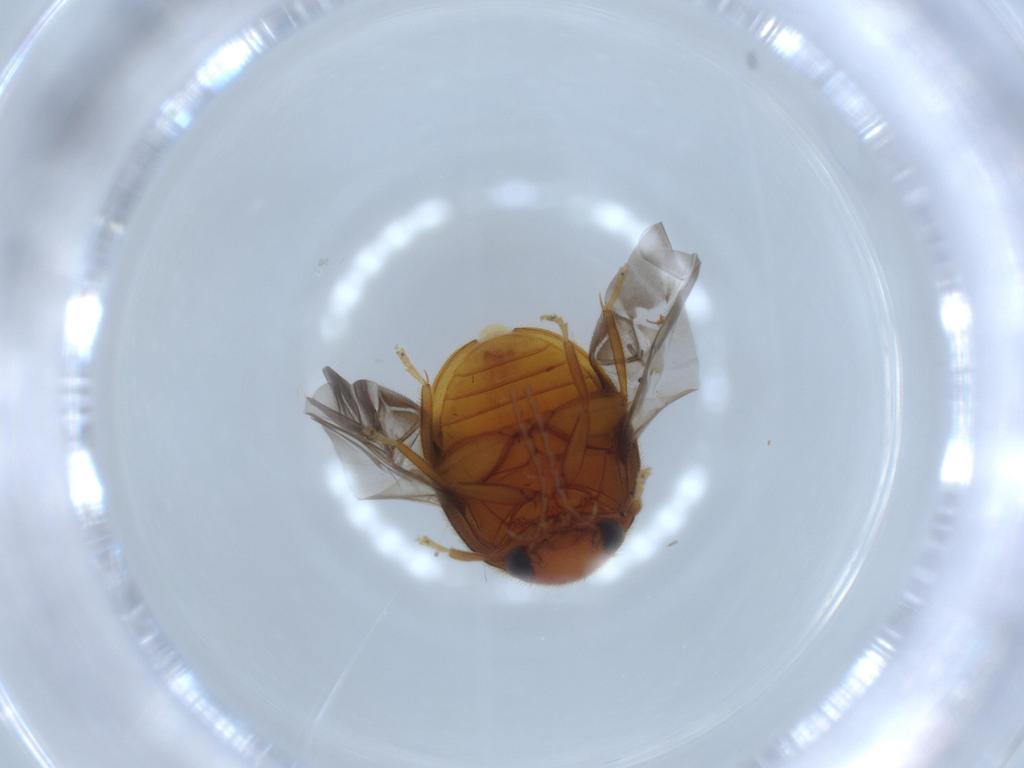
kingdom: Animalia
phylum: Arthropoda
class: Insecta
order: Coleoptera
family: Scirtidae
